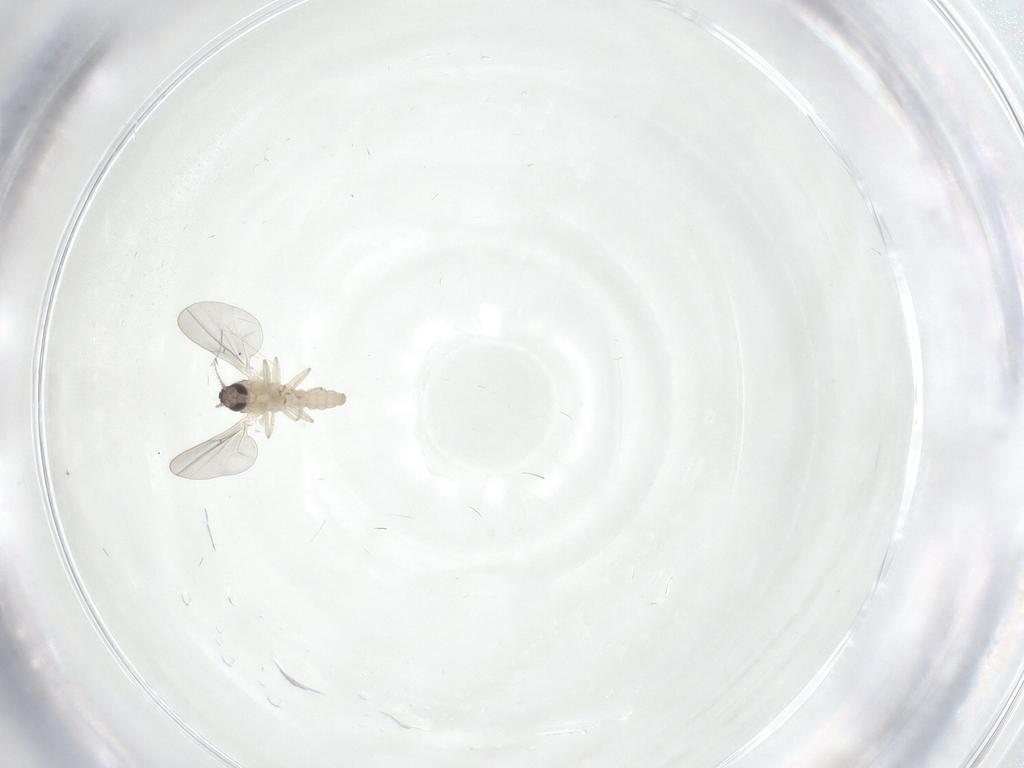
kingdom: Animalia
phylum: Arthropoda
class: Insecta
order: Diptera
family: Cecidomyiidae
